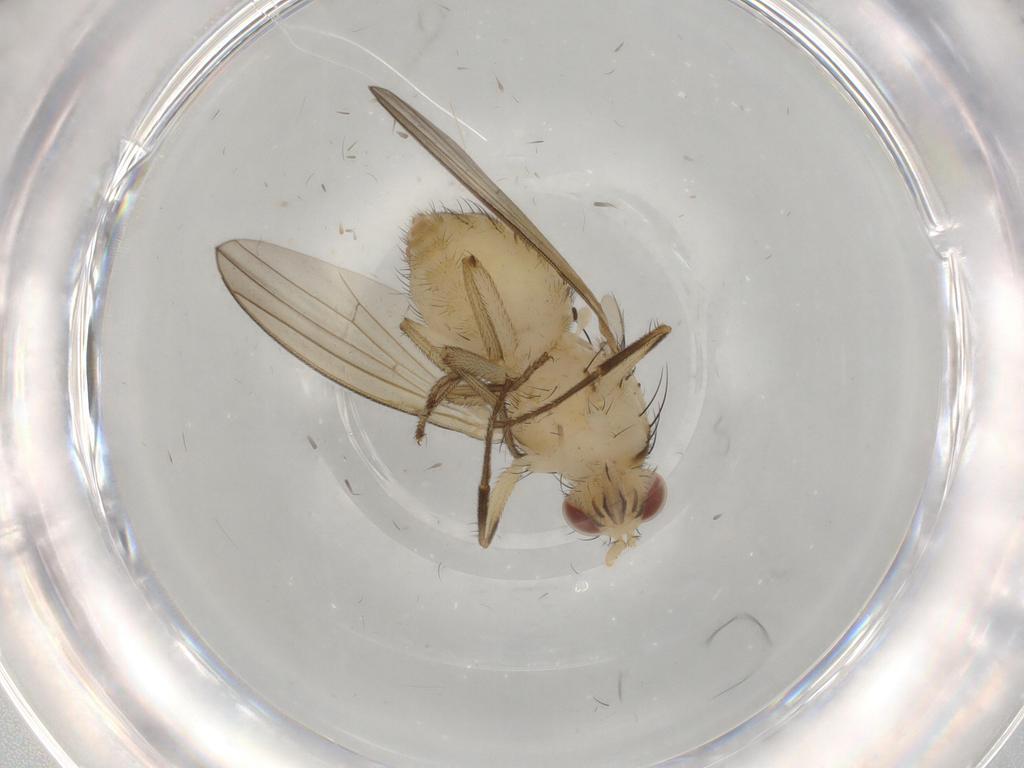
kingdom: Animalia
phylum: Arthropoda
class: Insecta
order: Diptera
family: Lauxaniidae
